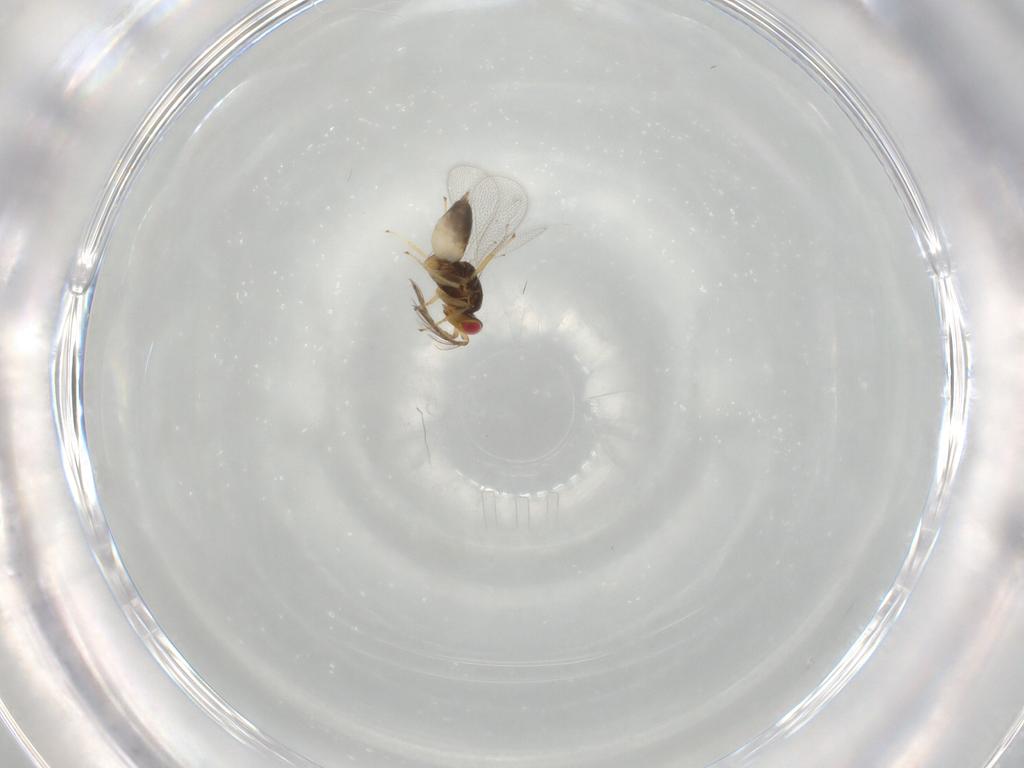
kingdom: Animalia
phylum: Arthropoda
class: Insecta
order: Hymenoptera
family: Eulophidae
